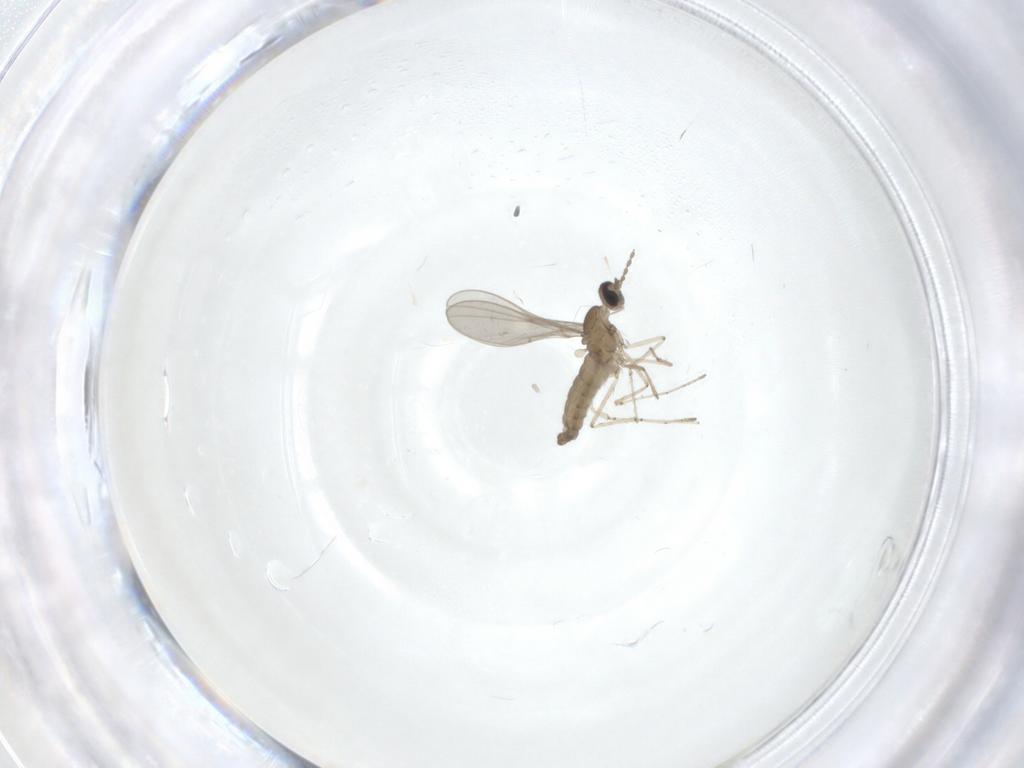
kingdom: Animalia
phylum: Arthropoda
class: Insecta
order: Diptera
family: Cecidomyiidae
